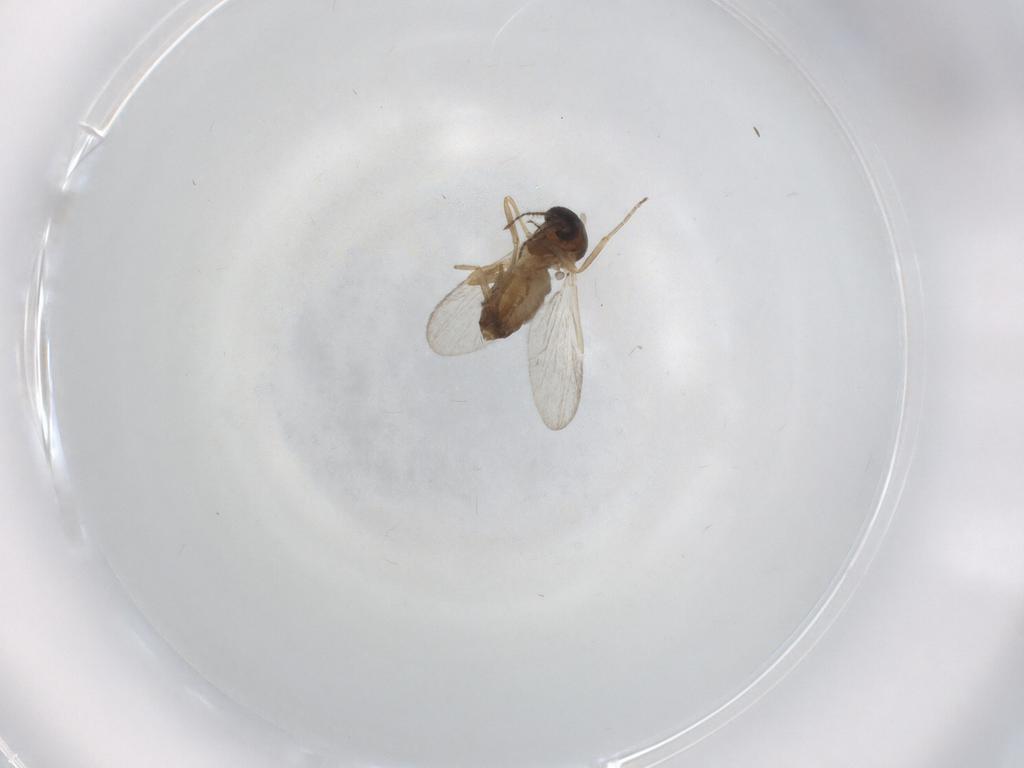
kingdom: Animalia
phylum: Arthropoda
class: Insecta
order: Diptera
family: Ceratopogonidae
